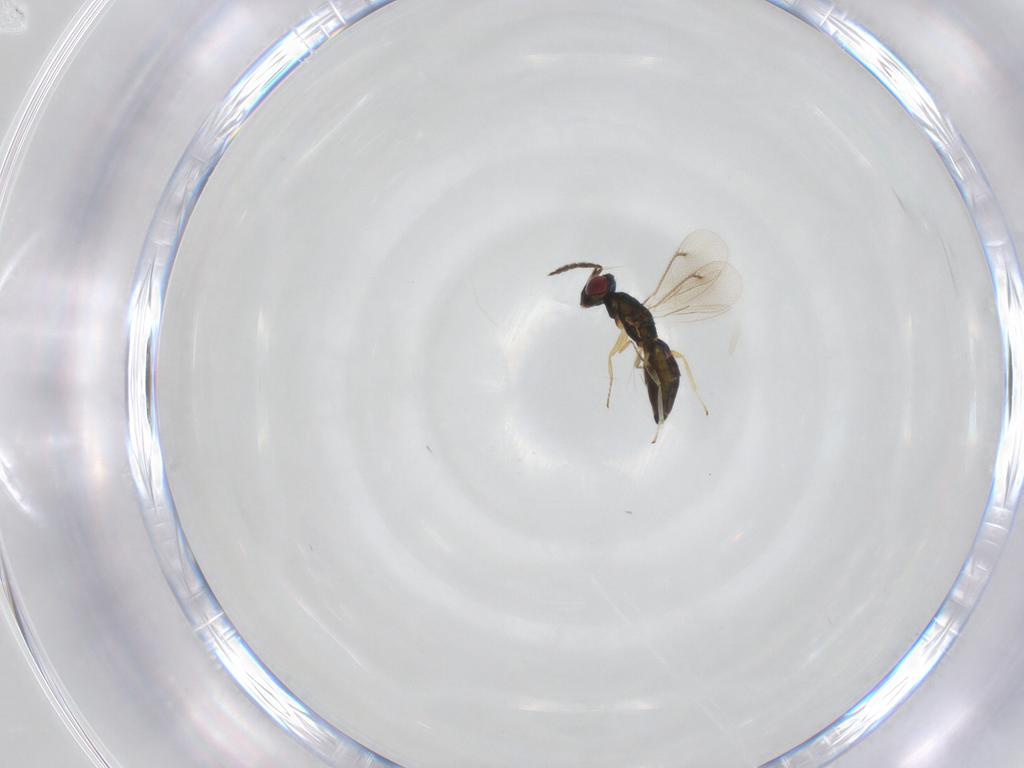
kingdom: Animalia
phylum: Arthropoda
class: Insecta
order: Hymenoptera
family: Eulophidae
